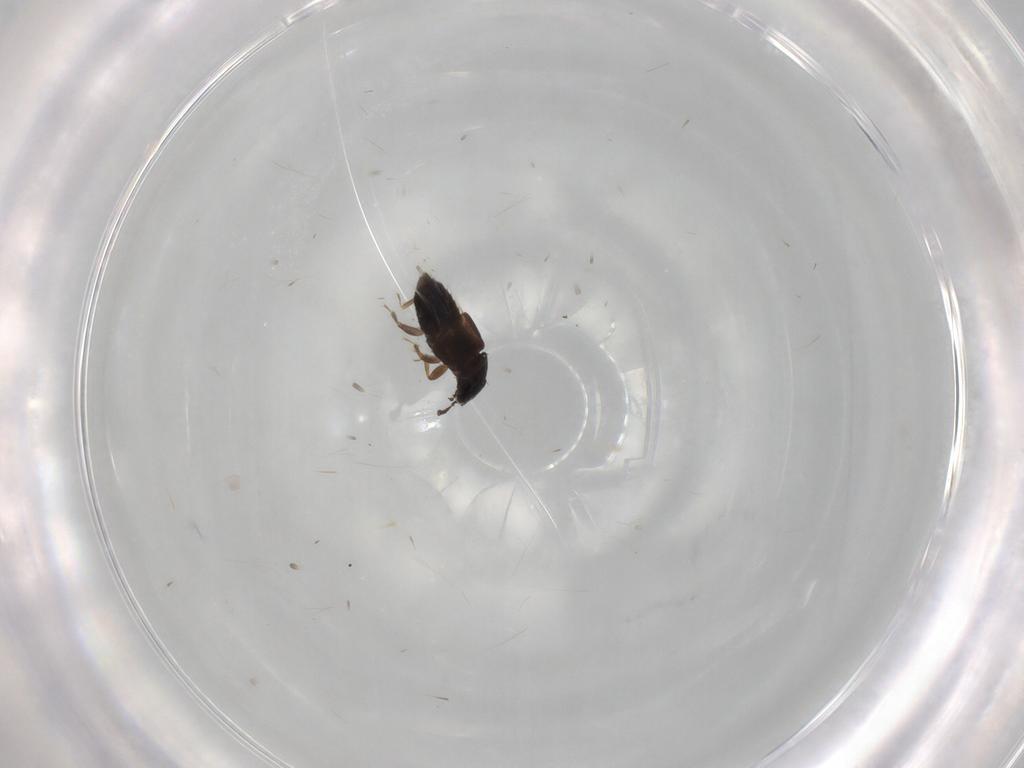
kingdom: Animalia
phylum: Arthropoda
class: Insecta
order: Coleoptera
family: Staphylinidae
